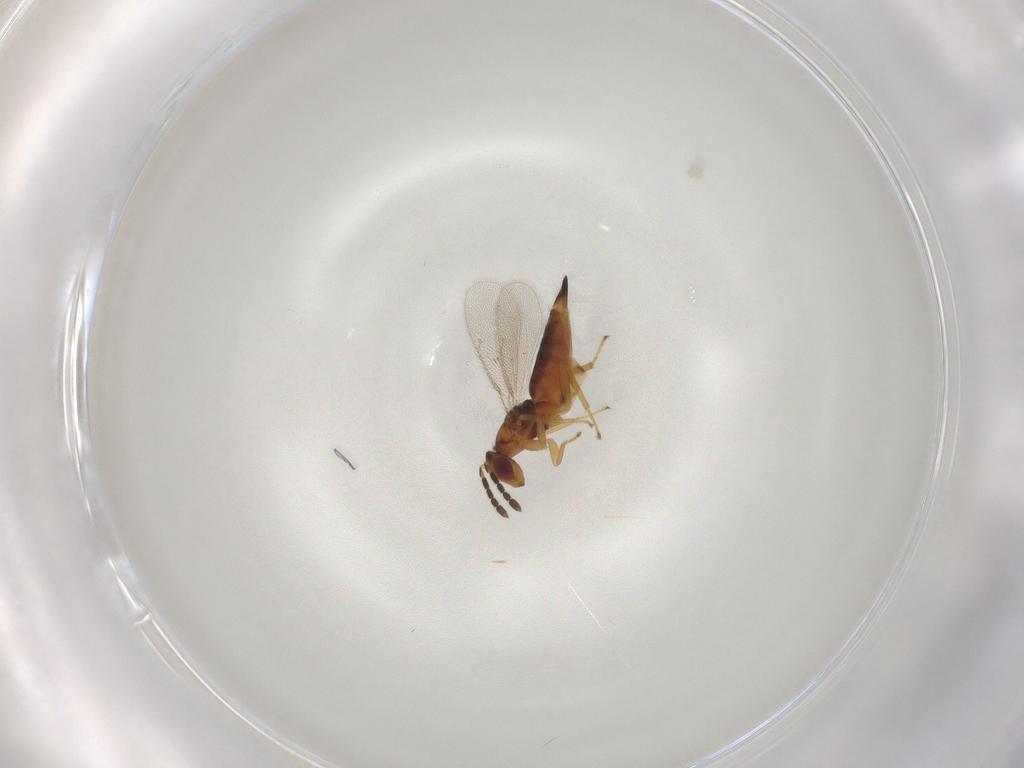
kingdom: Animalia
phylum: Arthropoda
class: Insecta
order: Hymenoptera
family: Eulophidae
